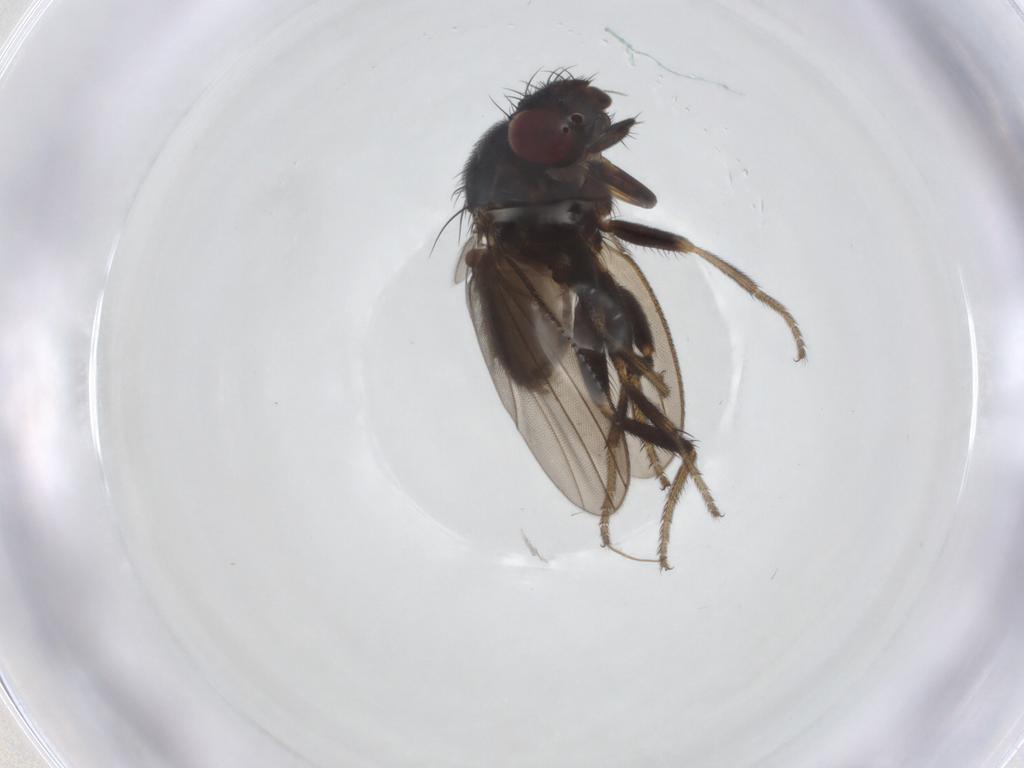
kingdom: Animalia
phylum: Arthropoda
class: Insecta
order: Diptera
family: Milichiidae
